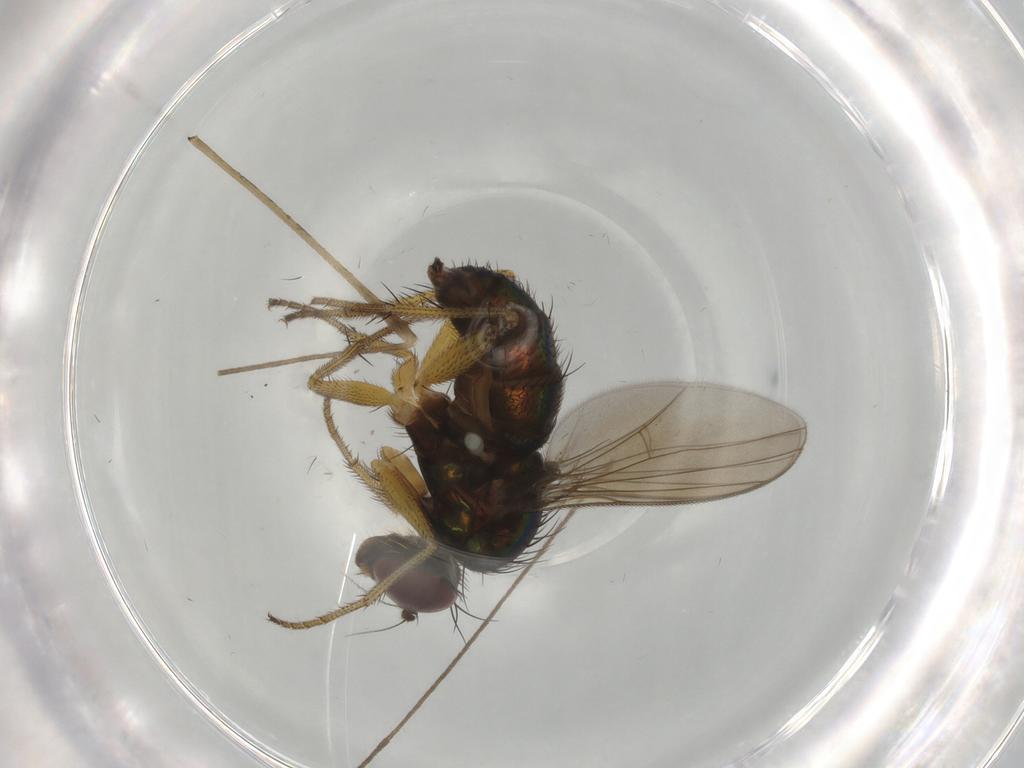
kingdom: Animalia
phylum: Arthropoda
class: Insecta
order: Diptera
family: Dolichopodidae
